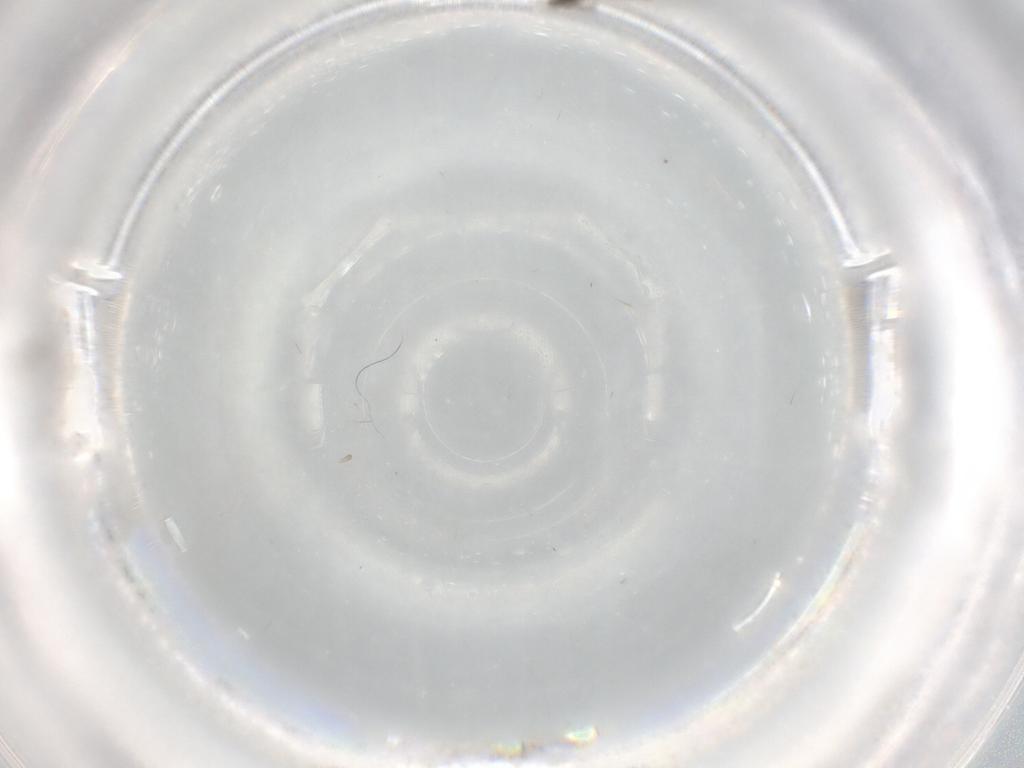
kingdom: Animalia
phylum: Arthropoda
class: Insecta
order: Diptera
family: Chironomidae
